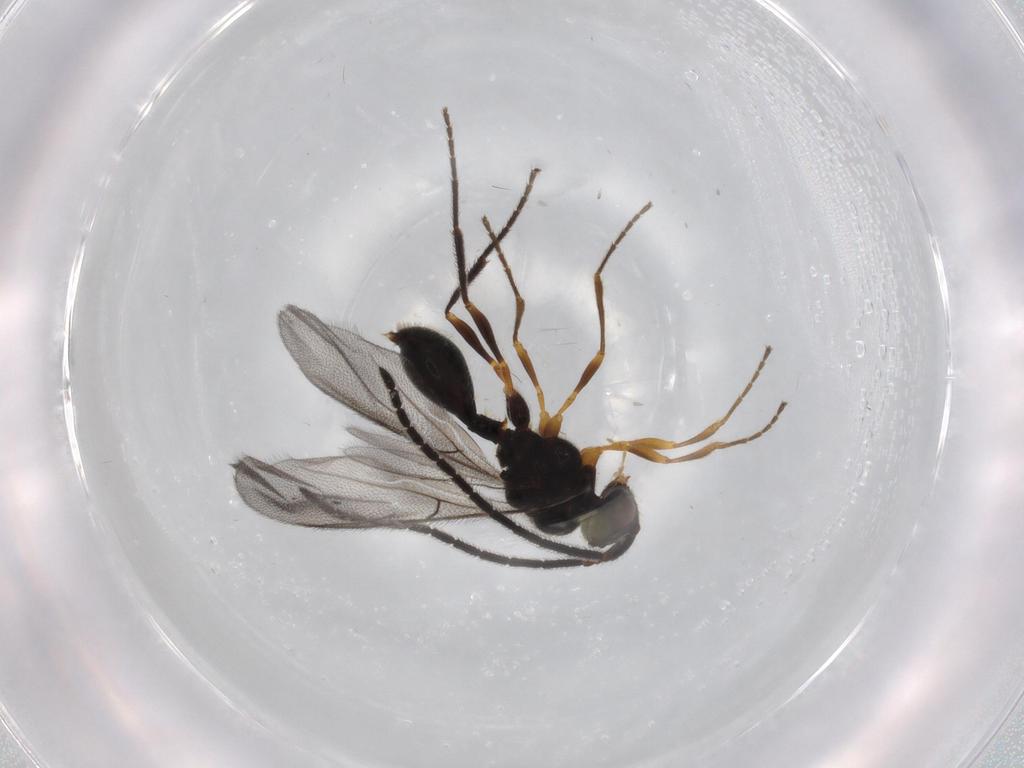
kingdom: Animalia
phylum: Arthropoda
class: Insecta
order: Hymenoptera
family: Diapriidae
